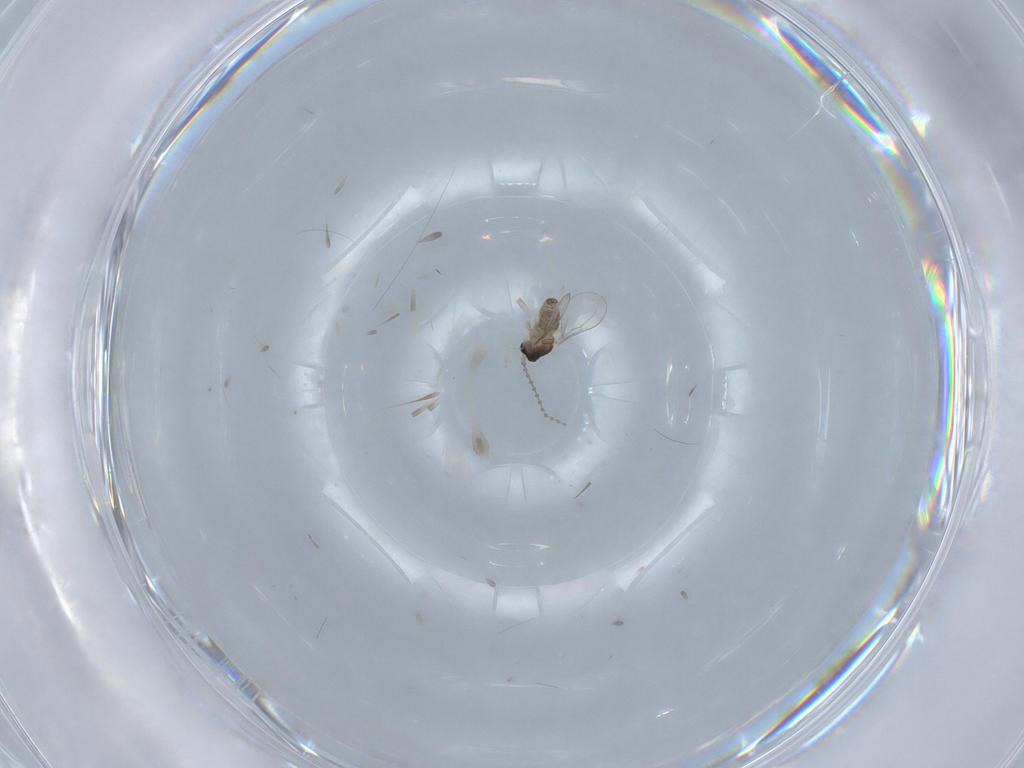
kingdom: Animalia
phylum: Arthropoda
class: Insecta
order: Diptera
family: Cecidomyiidae
